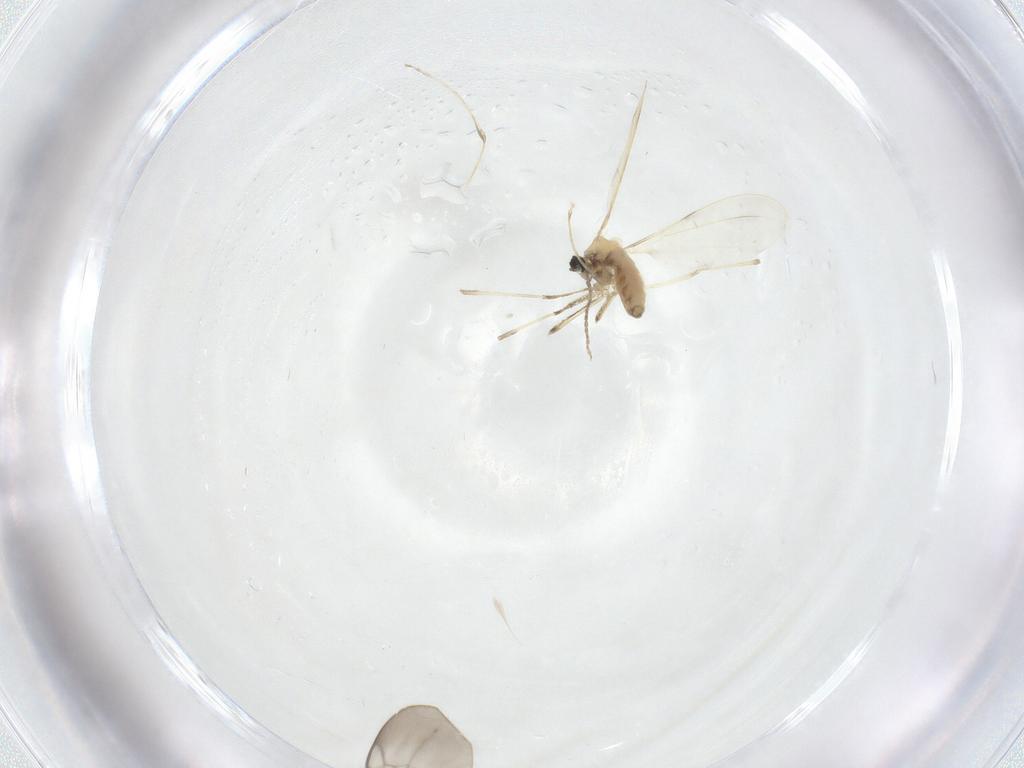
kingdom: Animalia
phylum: Arthropoda
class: Insecta
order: Diptera
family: Cecidomyiidae
